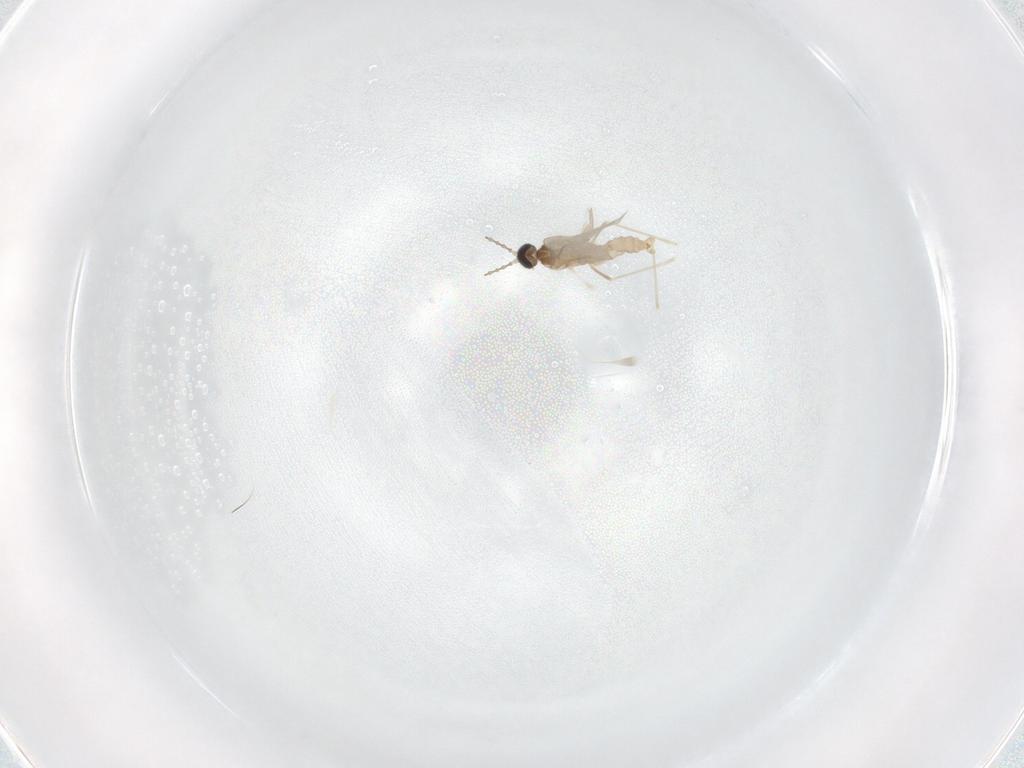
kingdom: Animalia
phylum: Arthropoda
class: Insecta
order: Diptera
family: Cecidomyiidae
